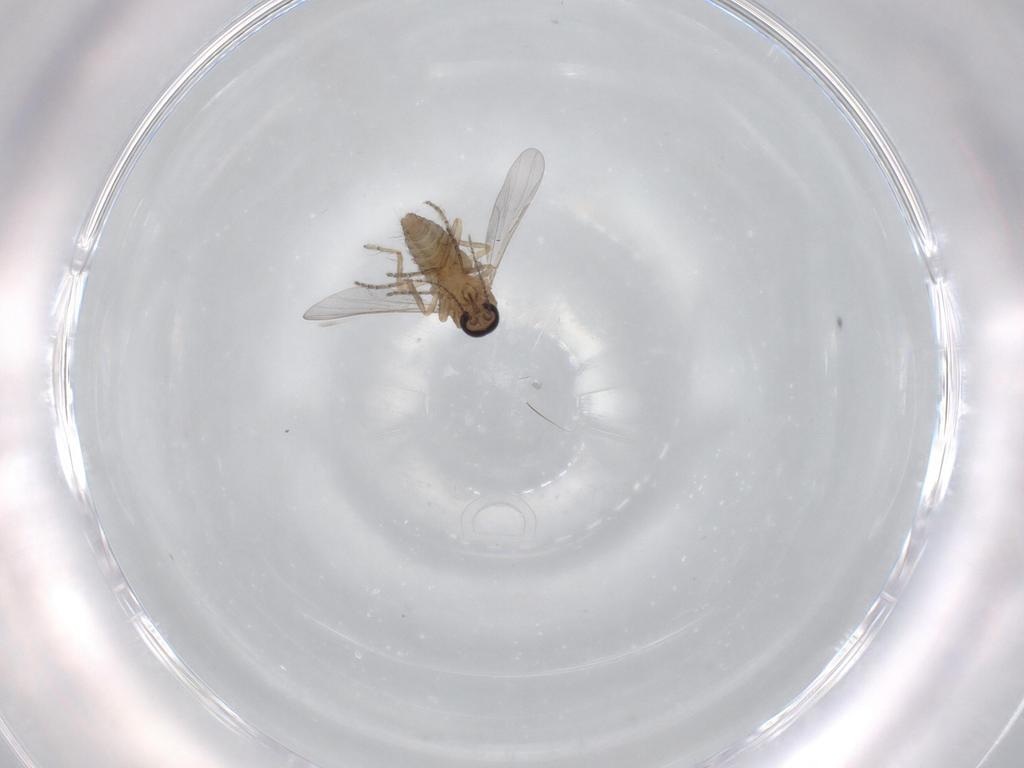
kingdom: Animalia
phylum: Arthropoda
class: Insecta
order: Diptera
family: Ceratopogonidae
